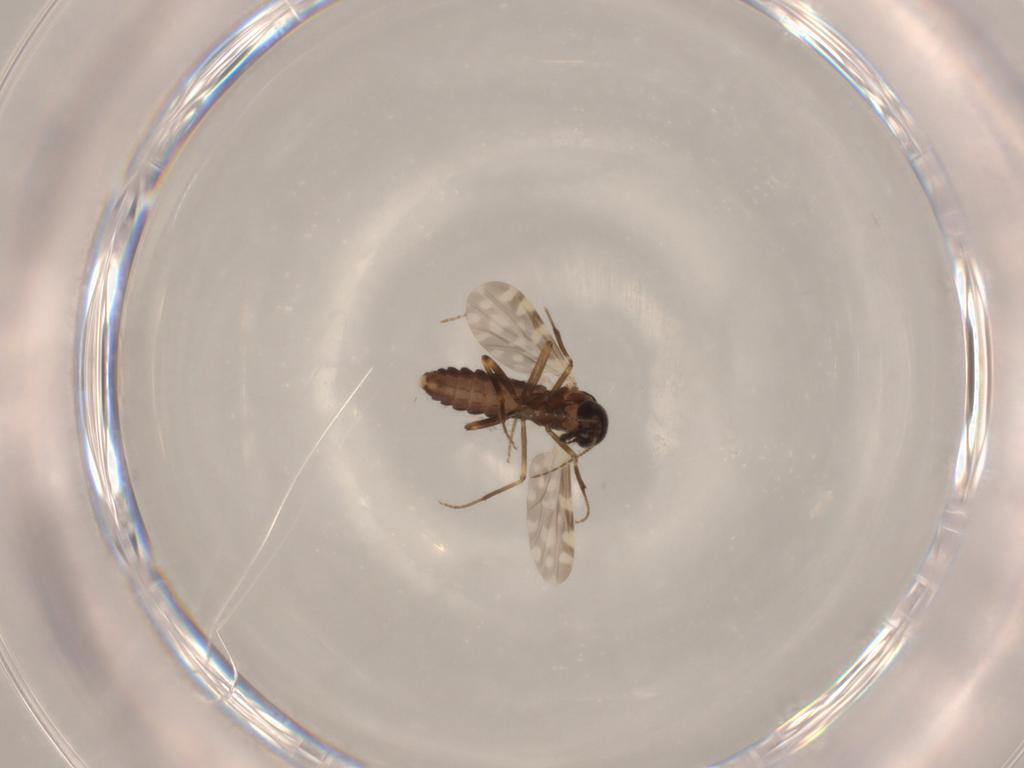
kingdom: Animalia
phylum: Arthropoda
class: Insecta
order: Diptera
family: Ceratopogonidae
